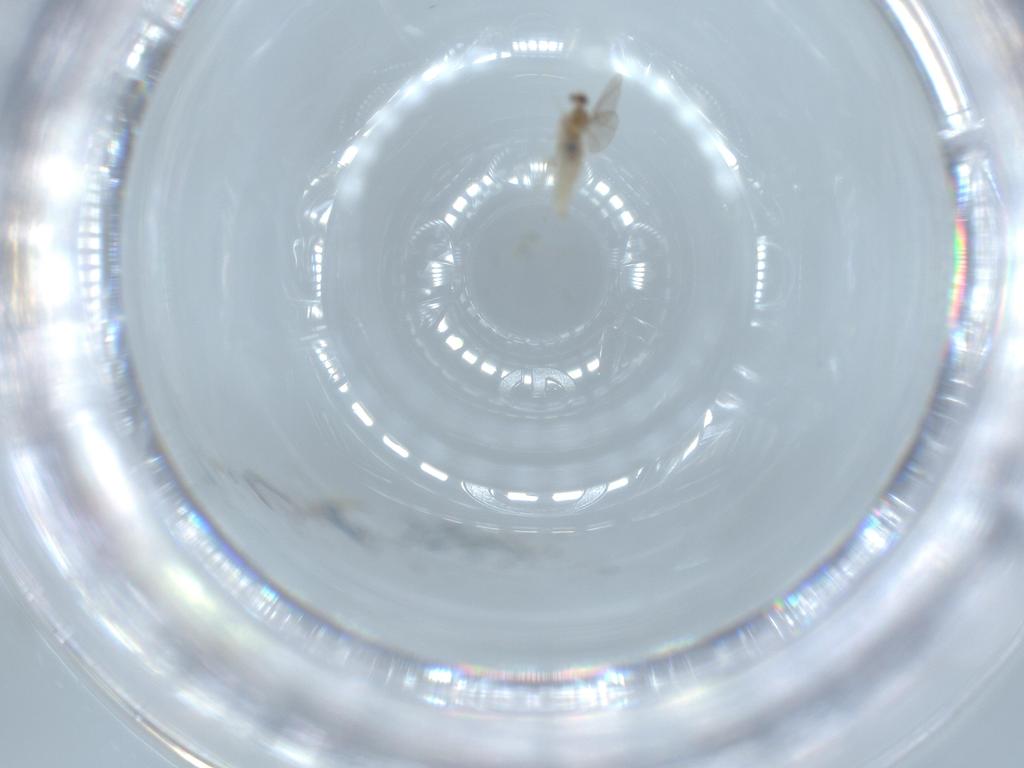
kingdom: Animalia
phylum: Arthropoda
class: Insecta
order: Diptera
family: Cecidomyiidae
